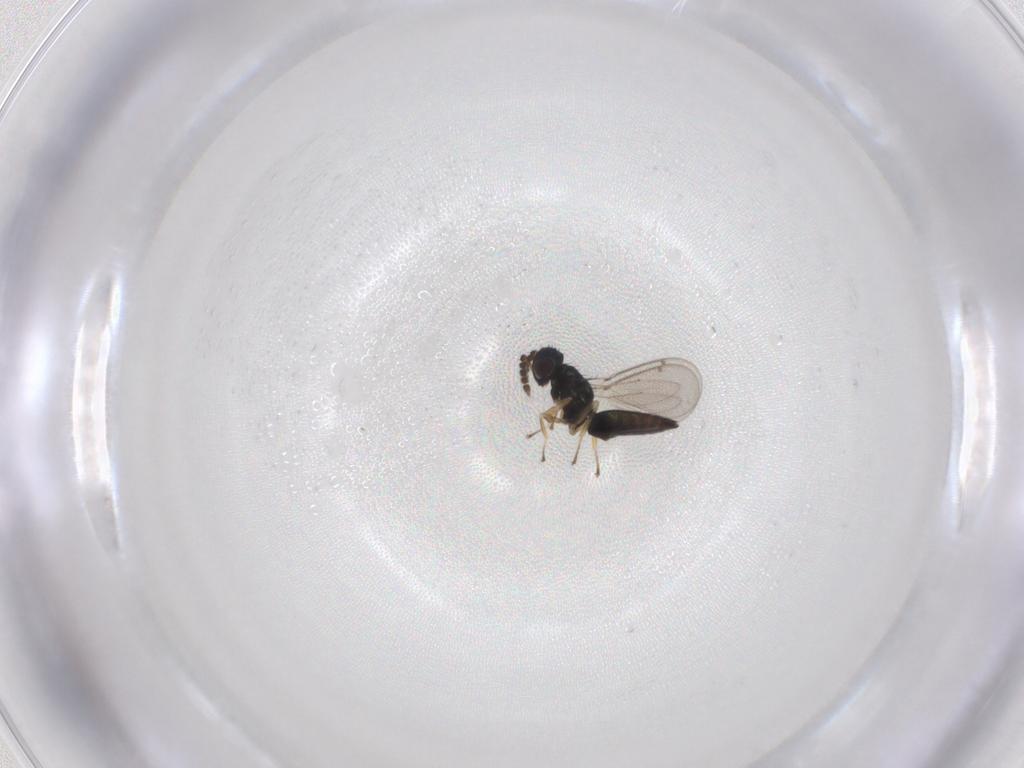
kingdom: Animalia
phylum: Arthropoda
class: Insecta
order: Hymenoptera
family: Eulophidae
